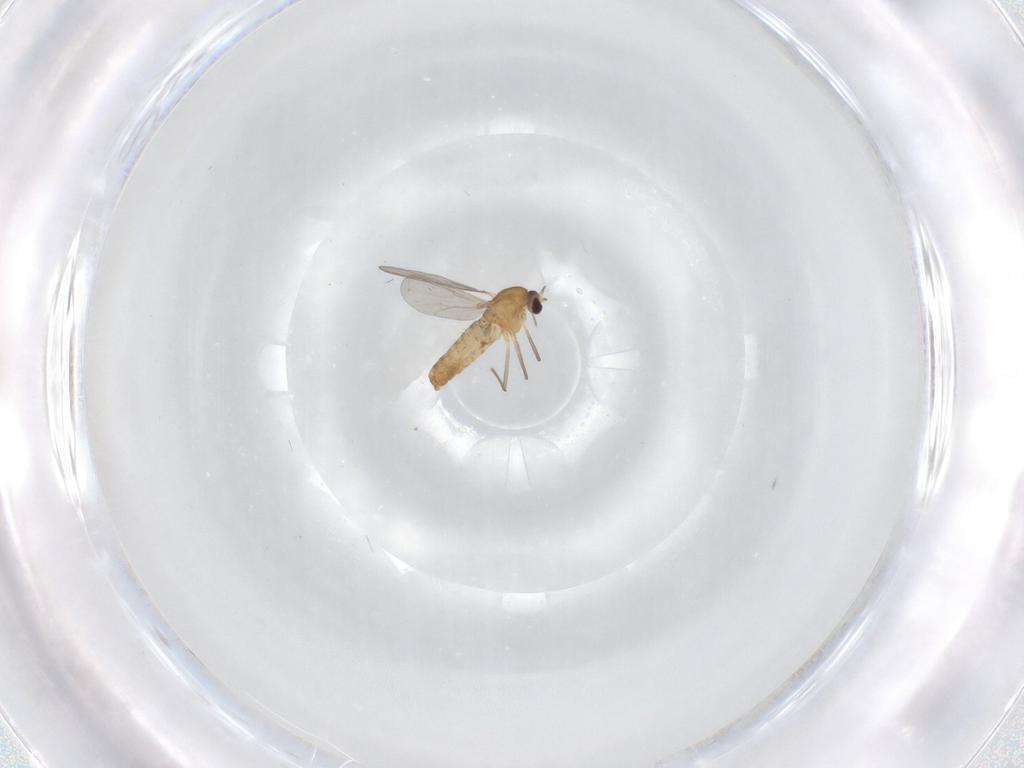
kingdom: Animalia
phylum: Arthropoda
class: Insecta
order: Diptera
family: Chironomidae
